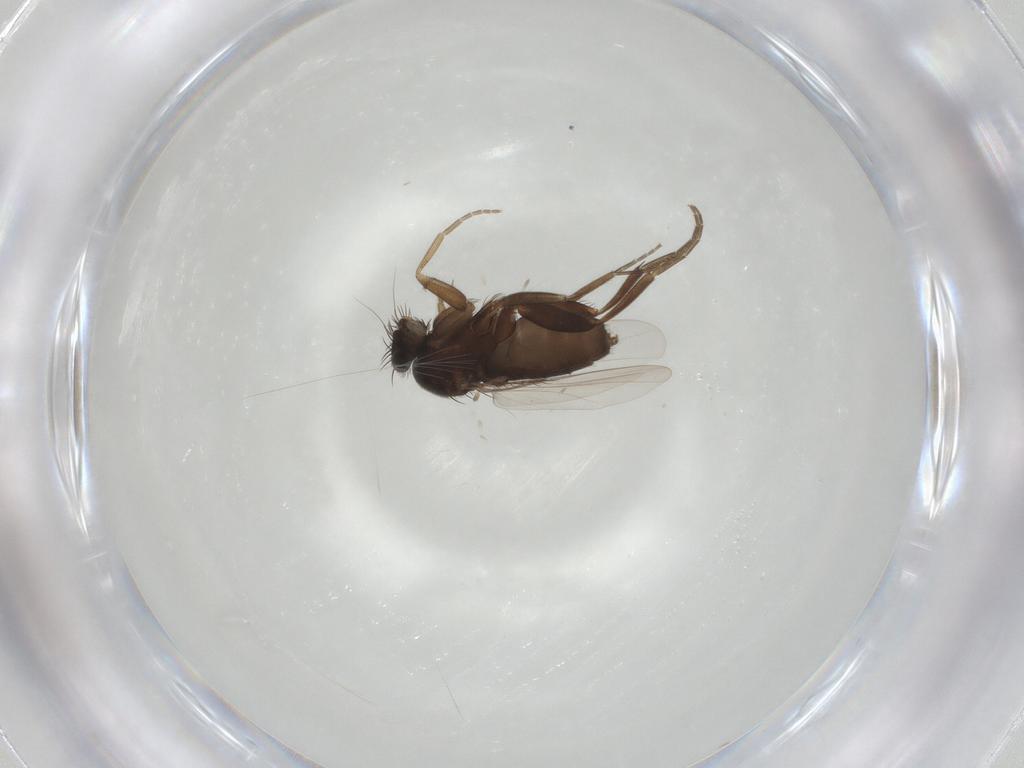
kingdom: Animalia
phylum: Arthropoda
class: Insecta
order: Diptera
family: Phoridae
